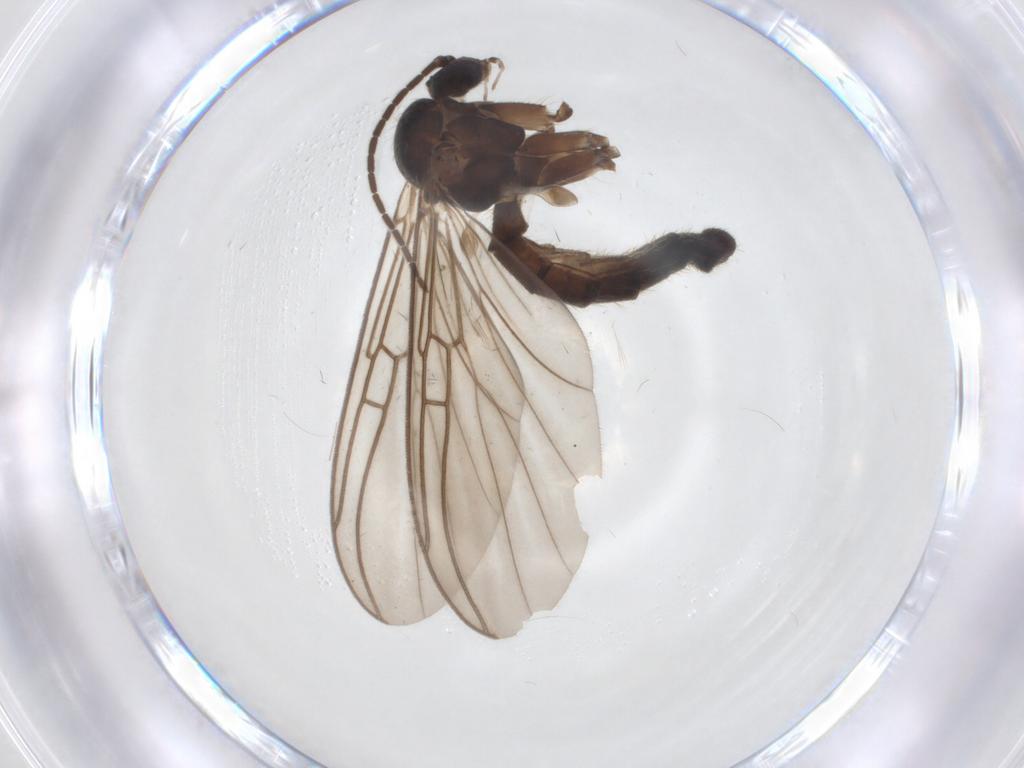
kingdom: Animalia
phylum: Arthropoda
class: Insecta
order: Diptera
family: Mycetophilidae
